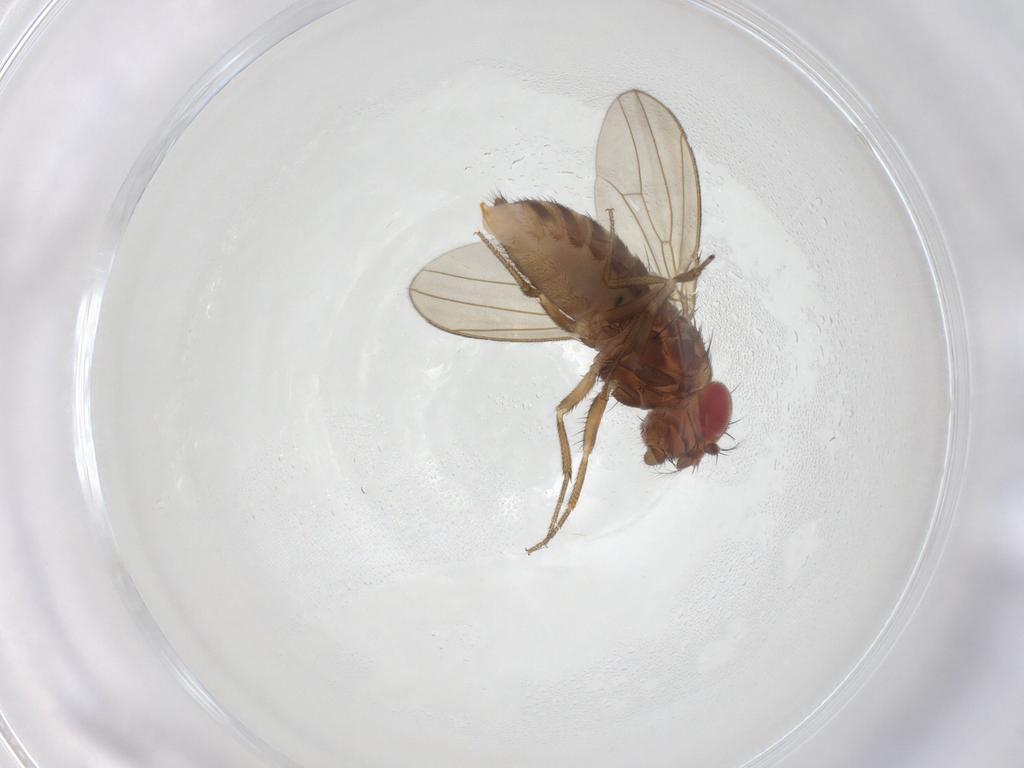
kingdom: Animalia
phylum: Arthropoda
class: Insecta
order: Diptera
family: Drosophilidae
